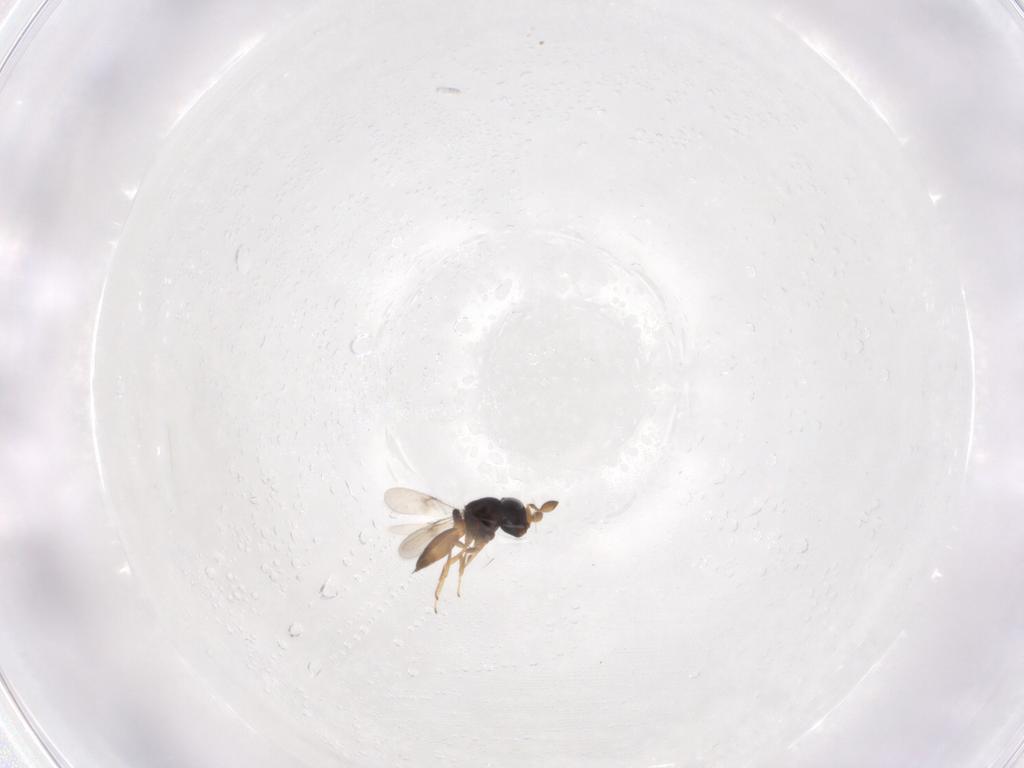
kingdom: Animalia
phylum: Arthropoda
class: Insecta
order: Hymenoptera
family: Scelionidae
